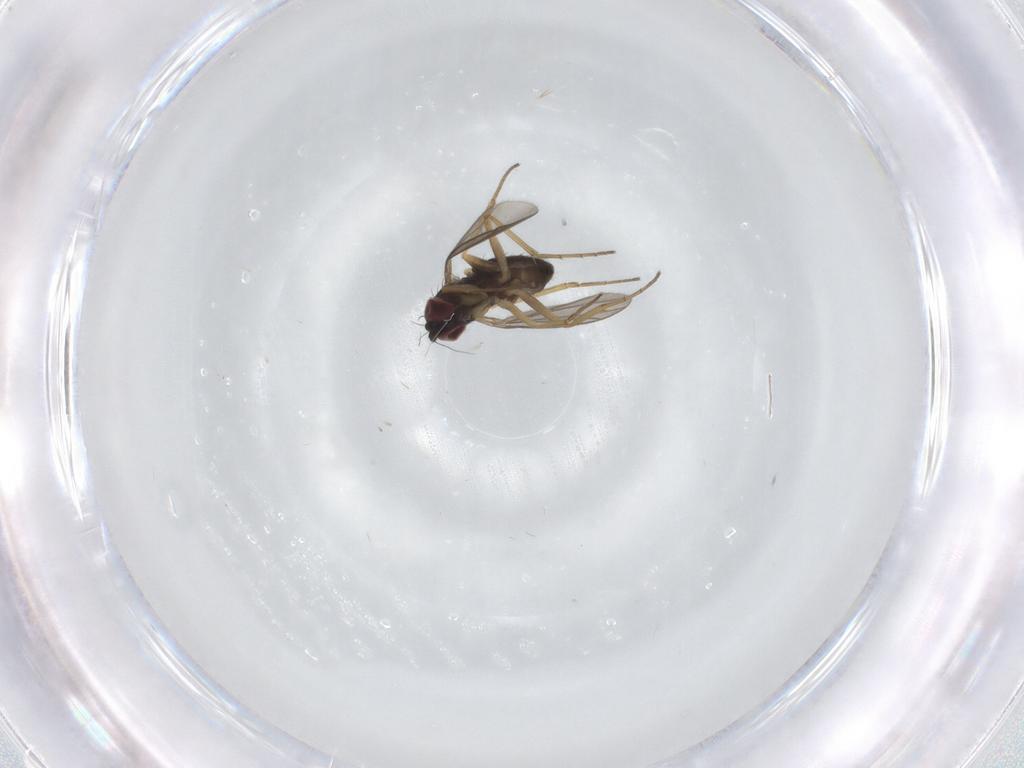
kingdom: Animalia
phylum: Arthropoda
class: Insecta
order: Diptera
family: Dolichopodidae
